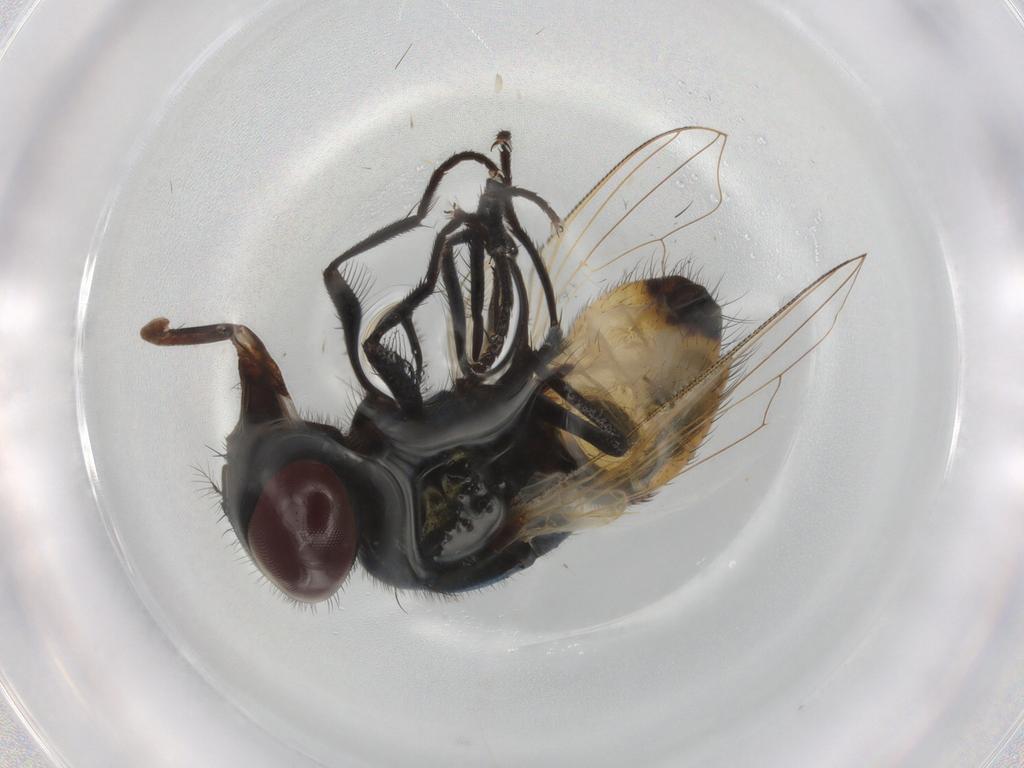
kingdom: Animalia
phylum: Arthropoda
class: Insecta
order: Diptera
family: Muscidae
